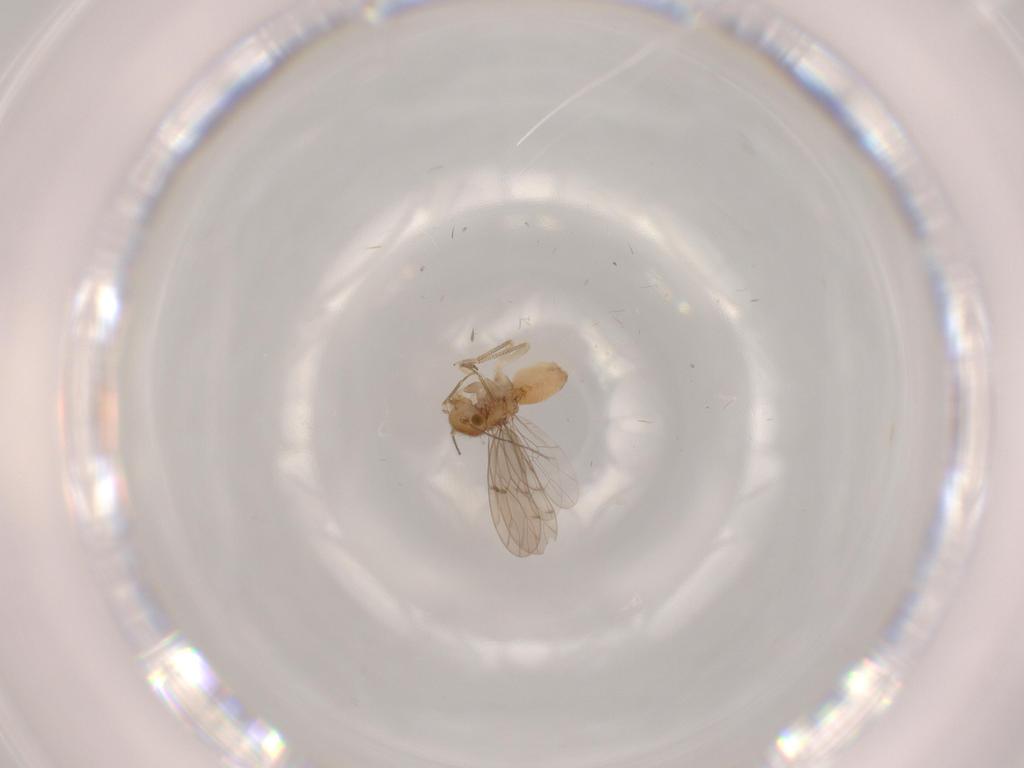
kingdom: Animalia
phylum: Arthropoda
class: Insecta
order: Psocodea
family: Ectopsocidae
